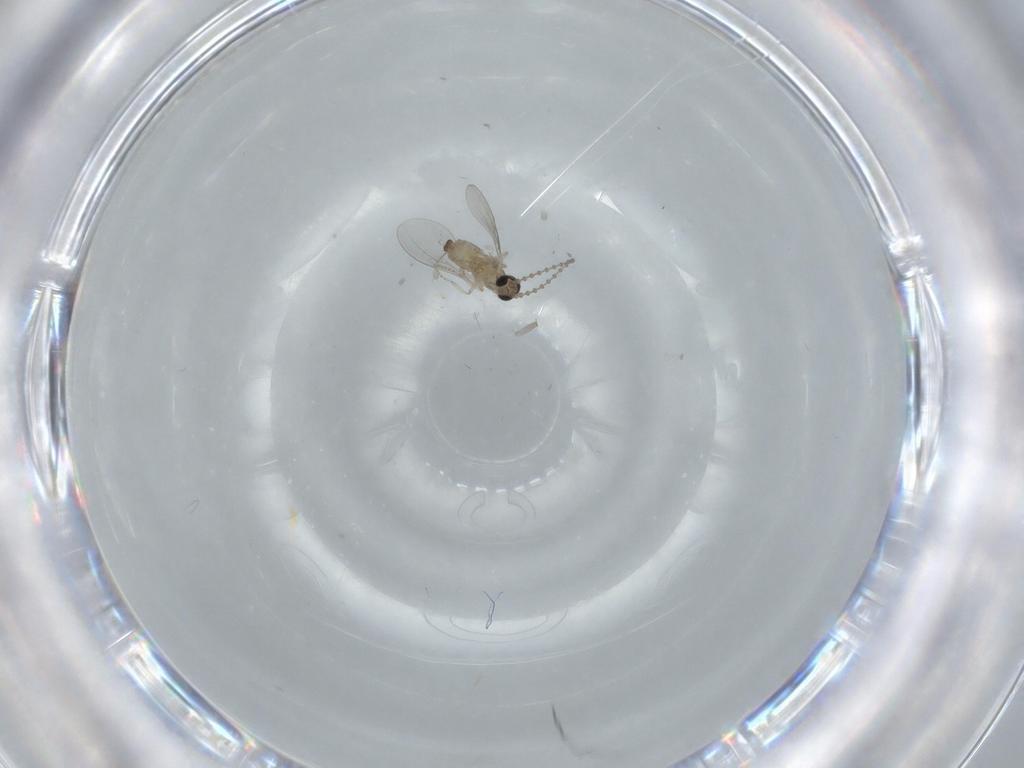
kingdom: Animalia
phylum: Arthropoda
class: Insecta
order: Diptera
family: Cecidomyiidae
